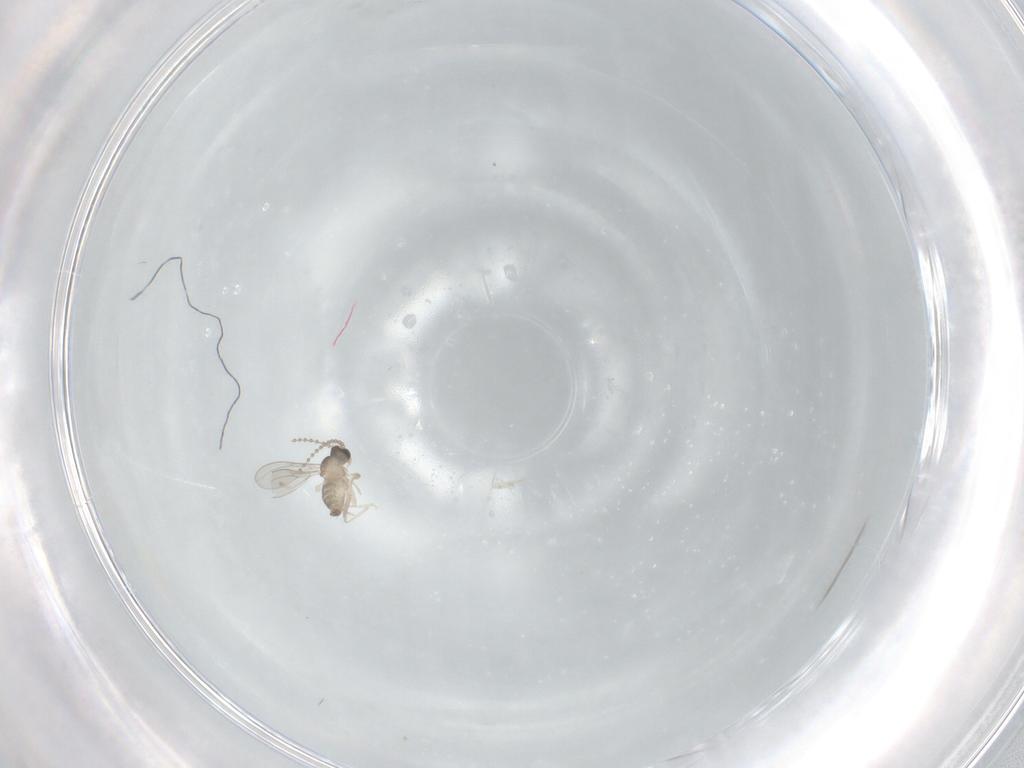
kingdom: Animalia
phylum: Arthropoda
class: Insecta
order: Diptera
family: Cecidomyiidae
